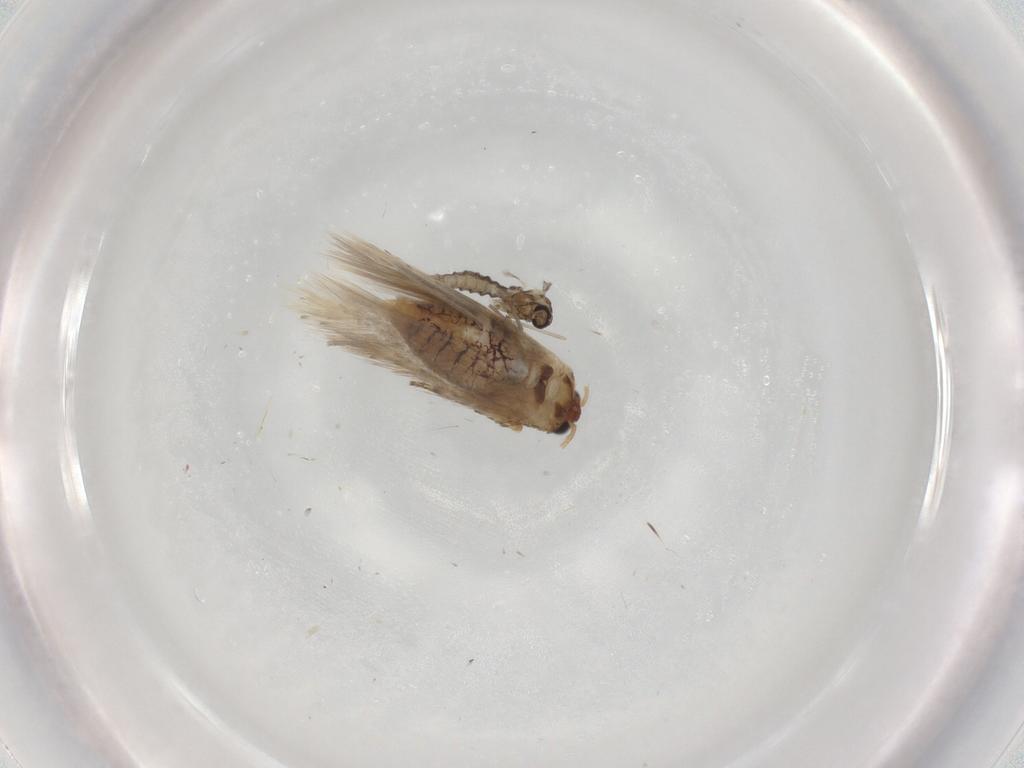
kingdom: Animalia
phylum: Arthropoda
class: Insecta
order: Lepidoptera
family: Nepticulidae
